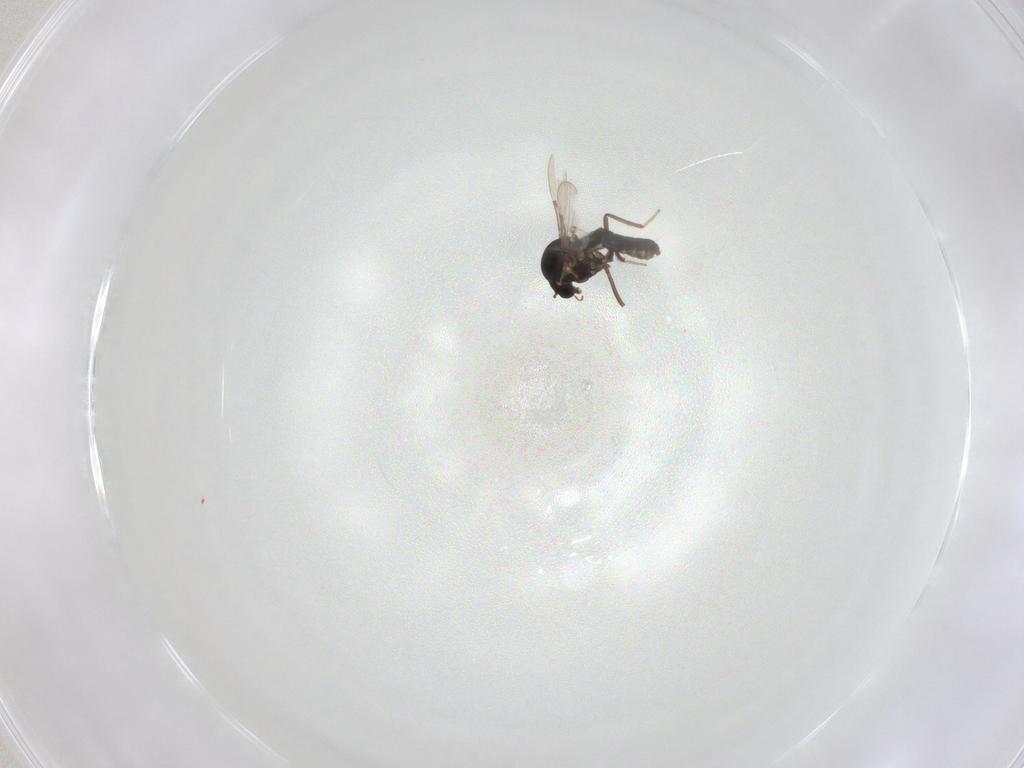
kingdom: Animalia
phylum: Arthropoda
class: Insecta
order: Diptera
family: Ceratopogonidae
